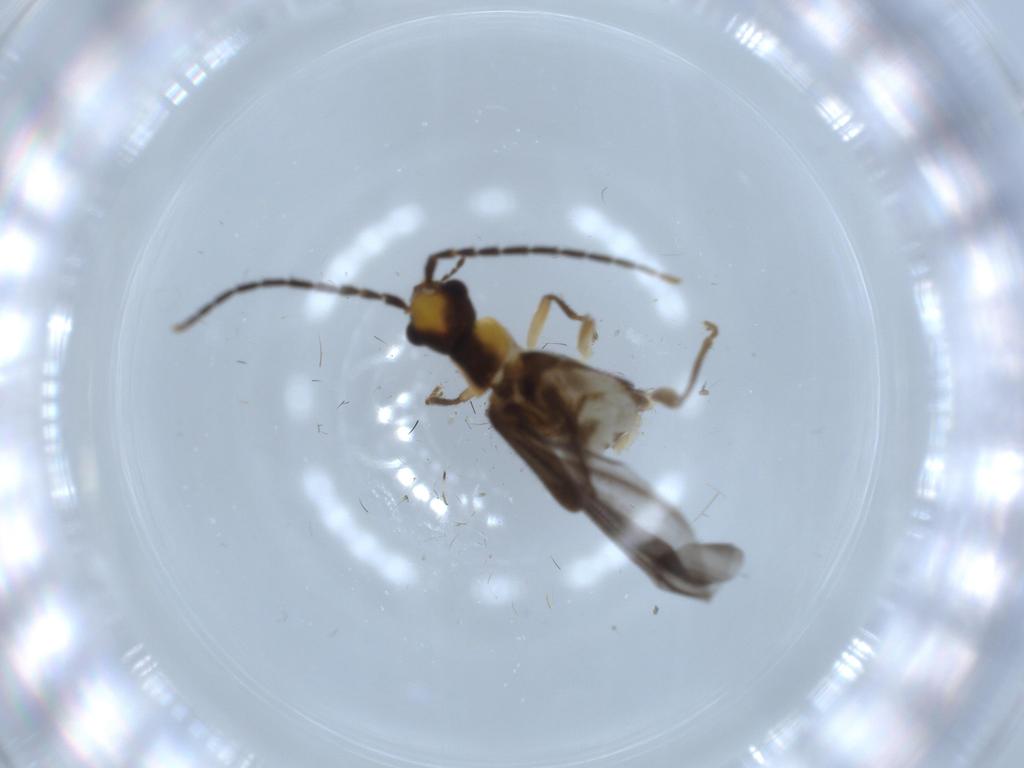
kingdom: Animalia
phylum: Arthropoda
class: Insecta
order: Coleoptera
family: Cantharidae
